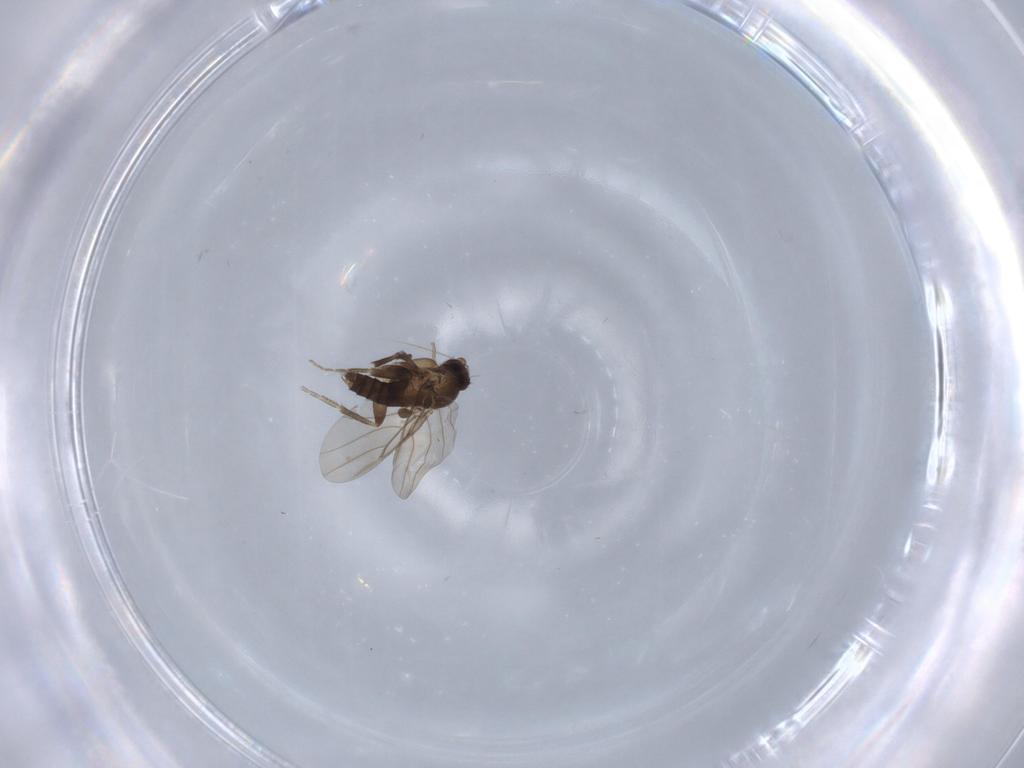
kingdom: Animalia
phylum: Arthropoda
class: Insecta
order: Diptera
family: Phoridae
